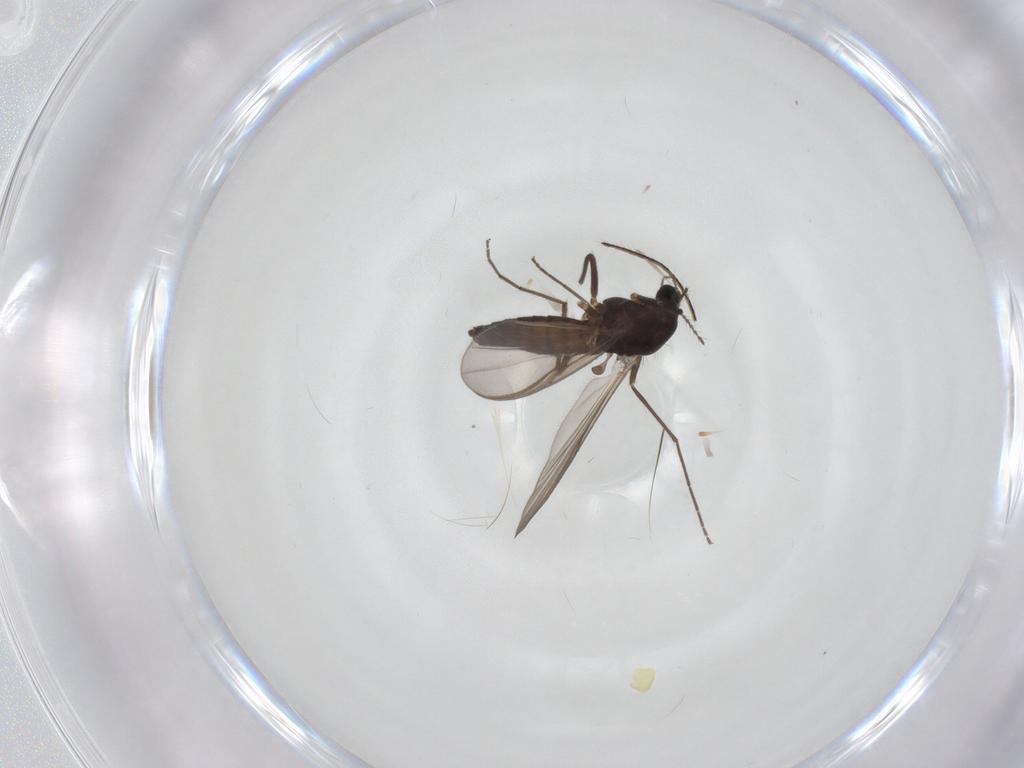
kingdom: Animalia
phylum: Arthropoda
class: Insecta
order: Diptera
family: Chironomidae
